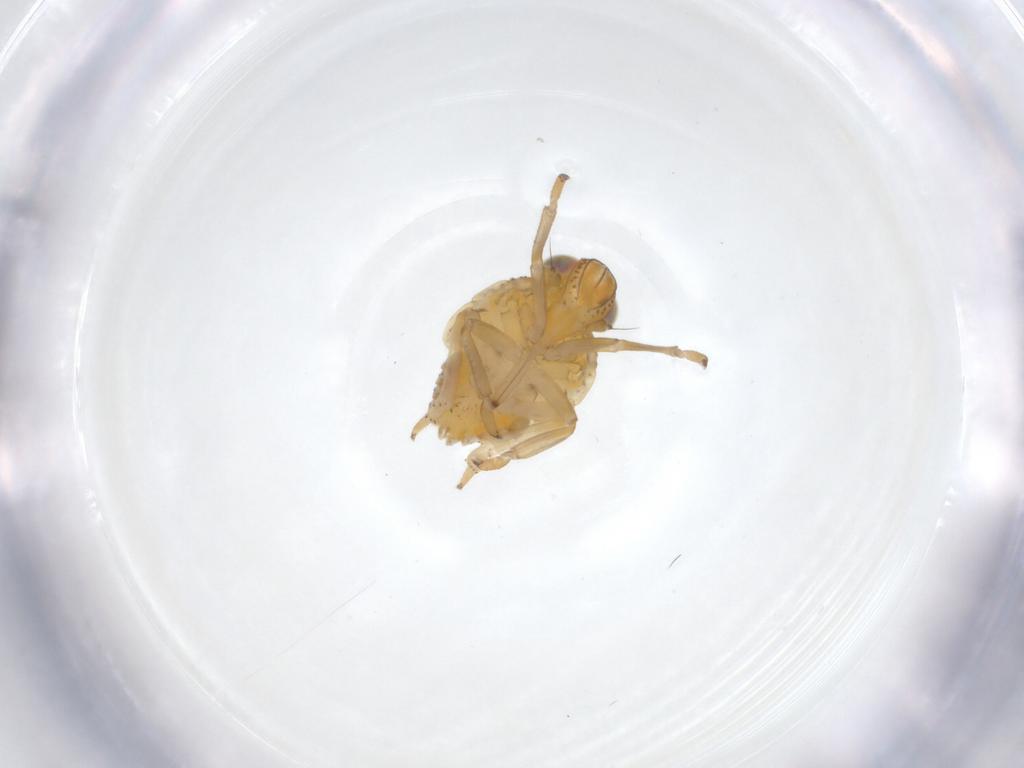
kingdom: Animalia
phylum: Arthropoda
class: Insecta
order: Hemiptera
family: Issidae
